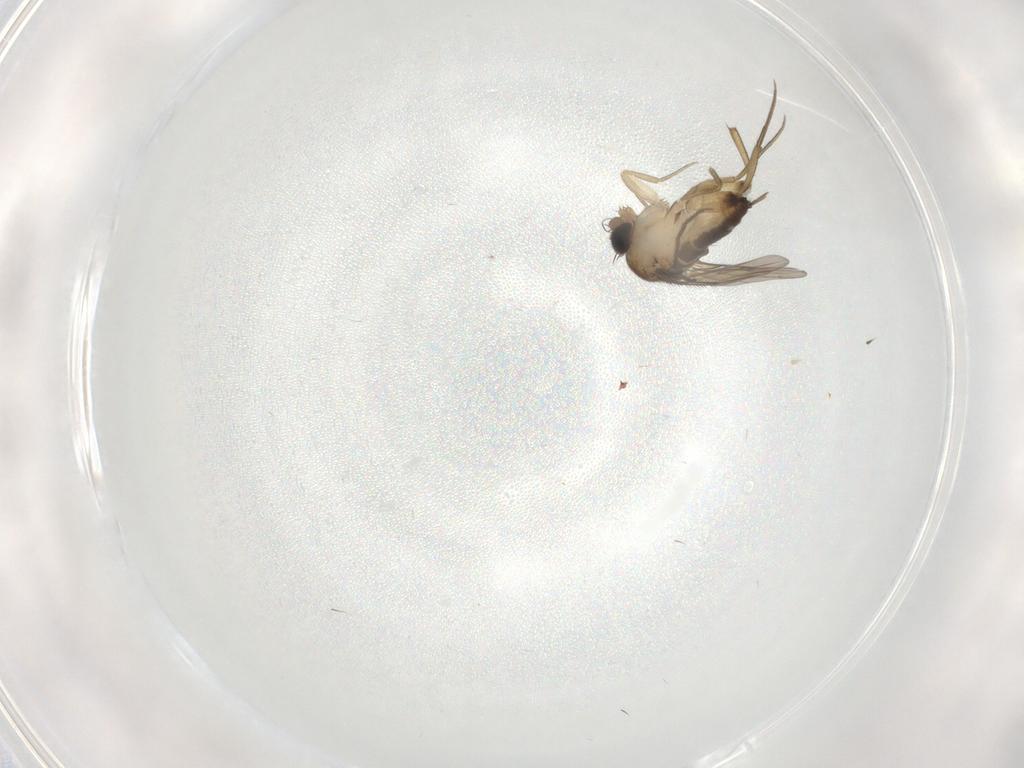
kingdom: Animalia
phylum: Arthropoda
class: Insecta
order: Diptera
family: Phoridae
